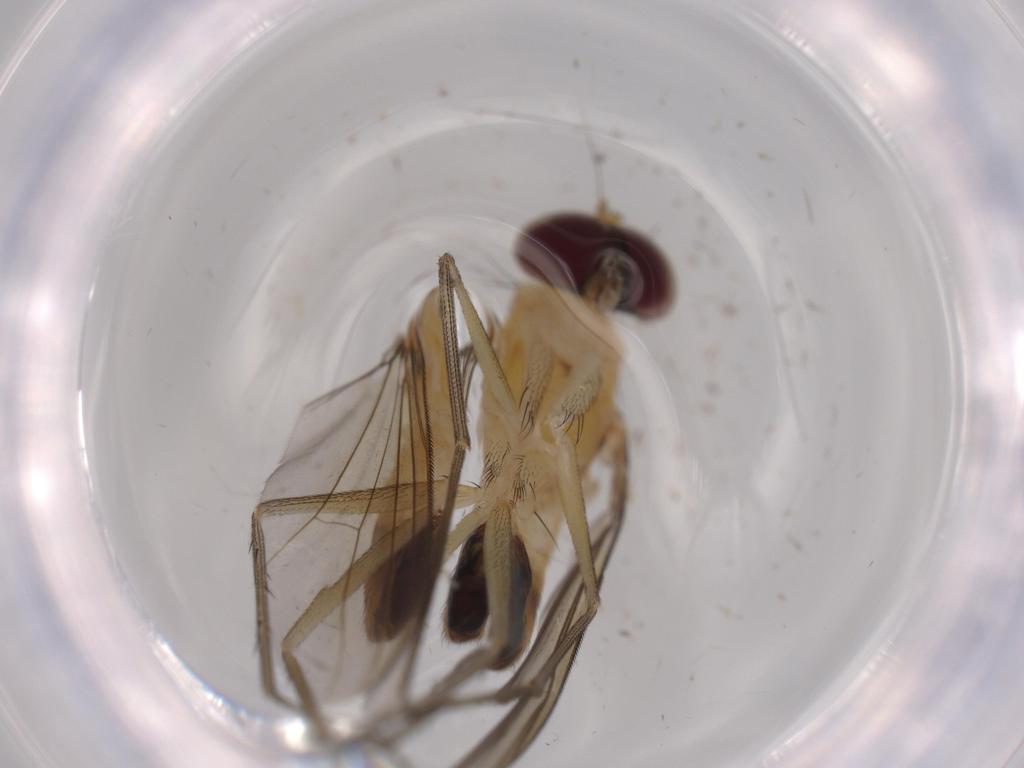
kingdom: Animalia
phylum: Arthropoda
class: Insecta
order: Diptera
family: Dolichopodidae
